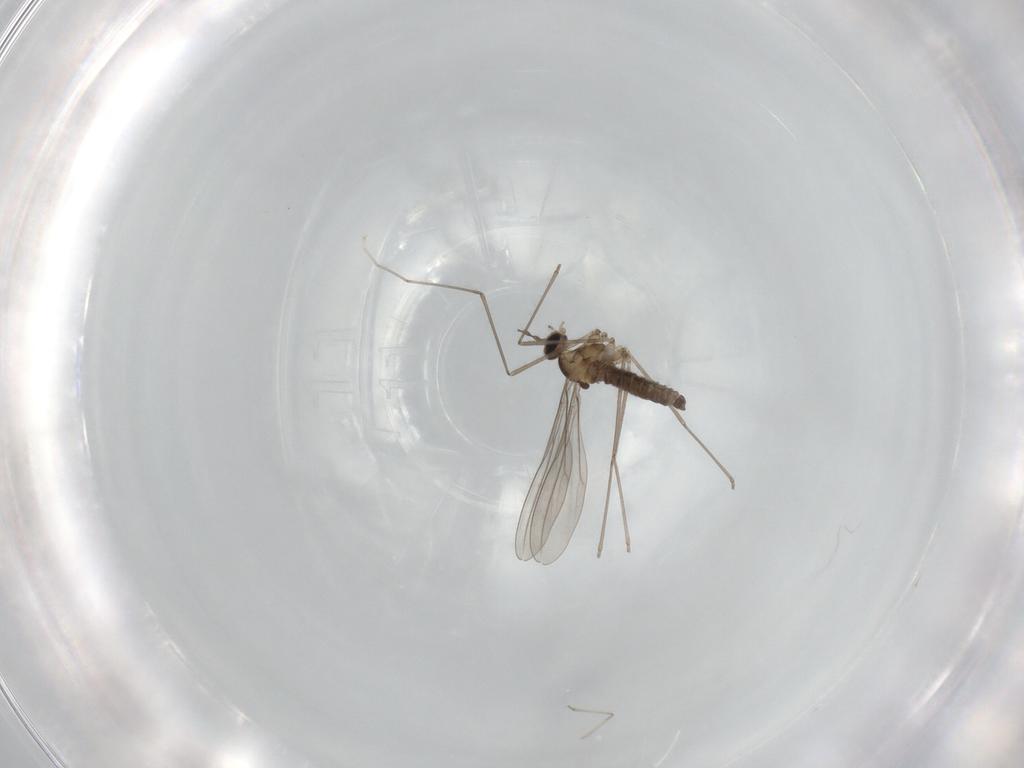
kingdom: Animalia
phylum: Arthropoda
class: Insecta
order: Diptera
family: Cecidomyiidae
